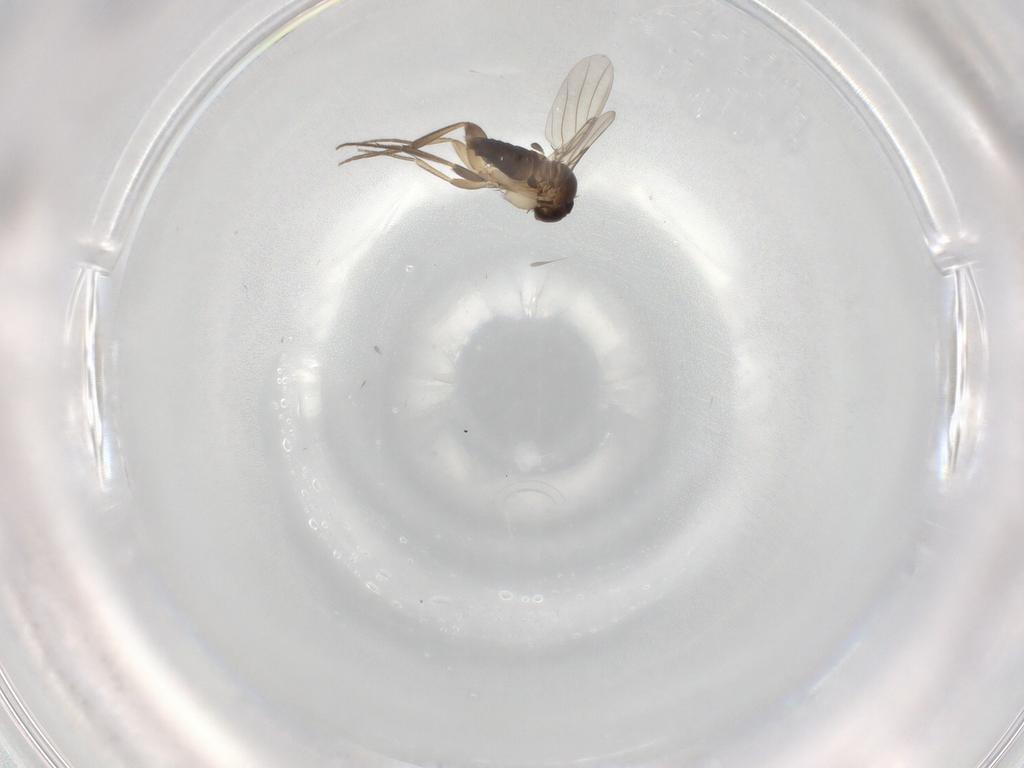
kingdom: Animalia
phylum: Arthropoda
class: Insecta
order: Diptera
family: Phoridae
